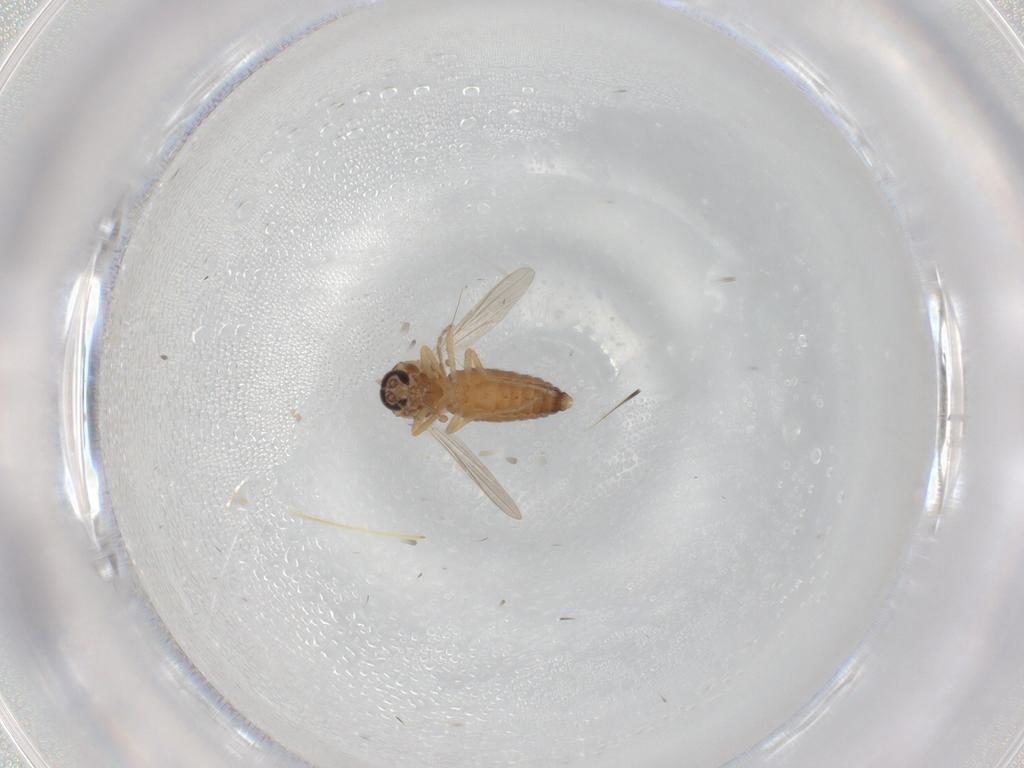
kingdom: Animalia
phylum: Arthropoda
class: Insecta
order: Diptera
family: Ceratopogonidae
